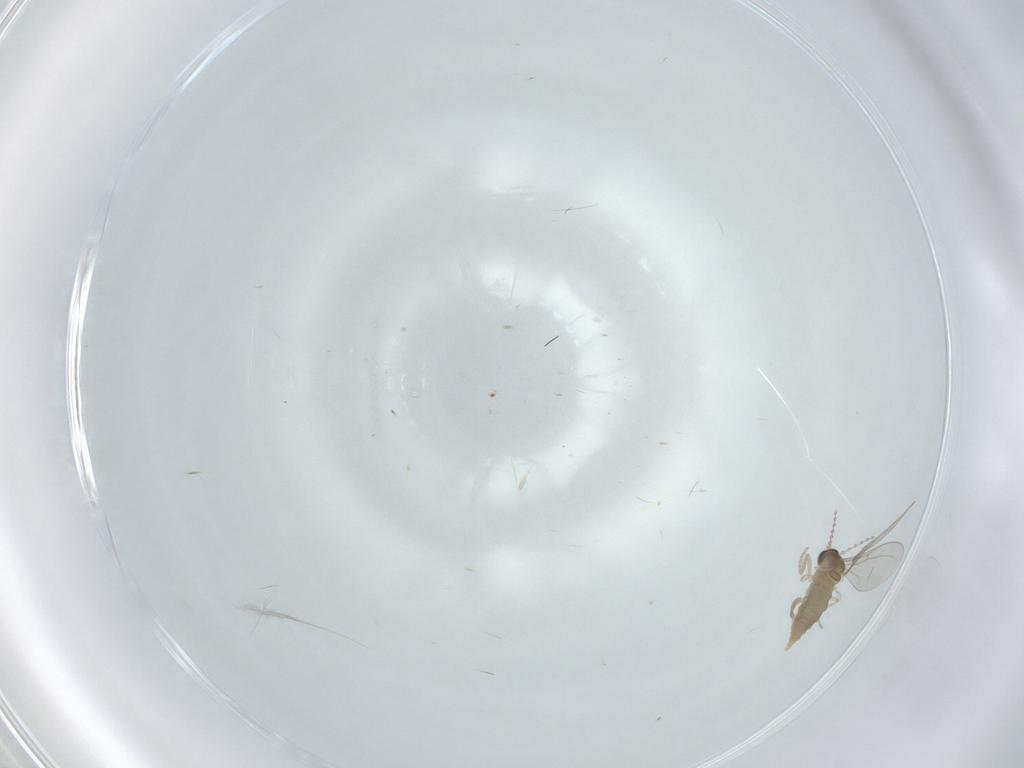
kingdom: Animalia
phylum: Arthropoda
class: Insecta
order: Diptera
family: Cecidomyiidae
